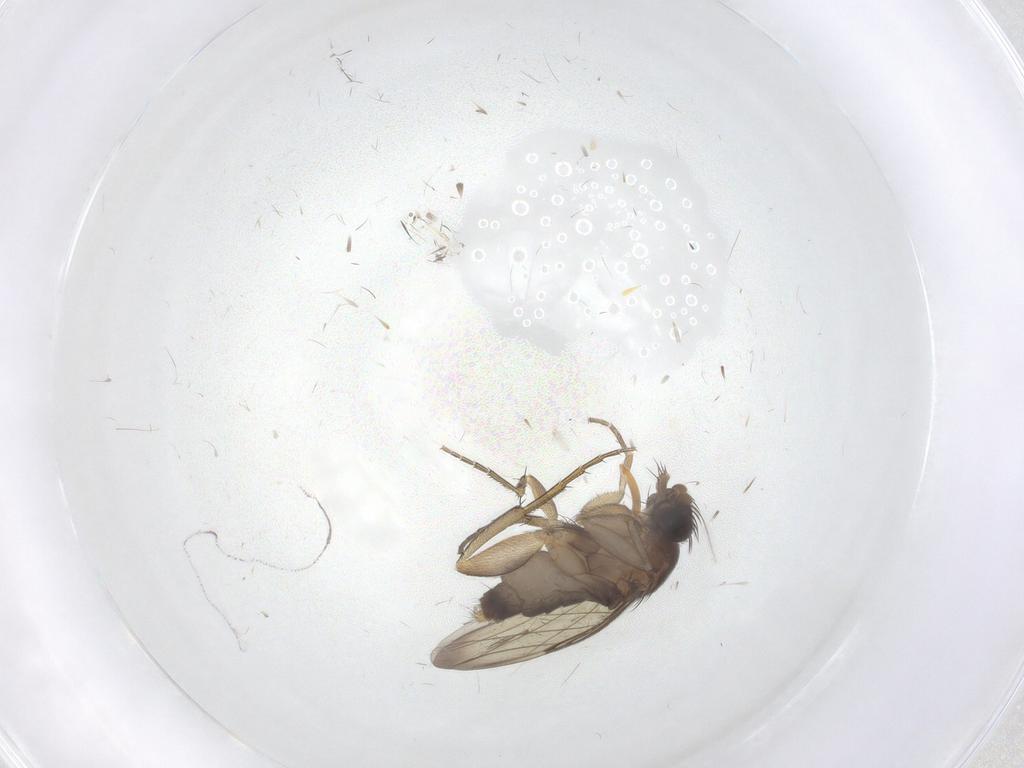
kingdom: Animalia
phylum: Arthropoda
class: Insecta
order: Diptera
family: Phoridae
